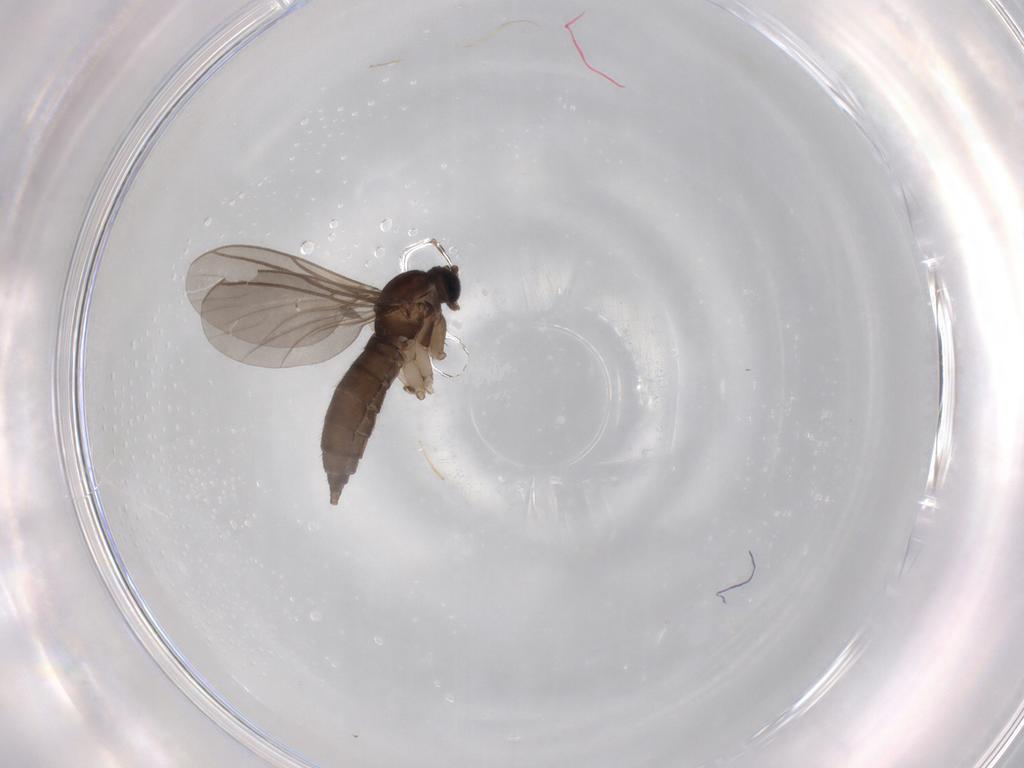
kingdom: Animalia
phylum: Arthropoda
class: Insecta
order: Diptera
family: Sciaridae
